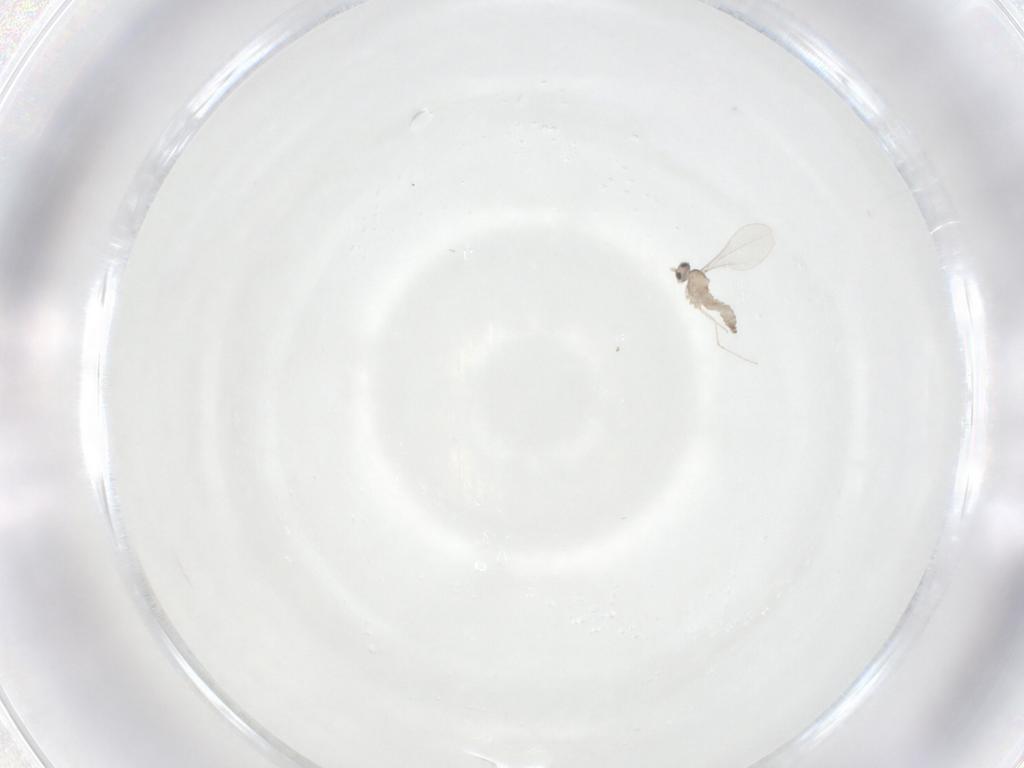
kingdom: Animalia
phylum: Arthropoda
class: Insecta
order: Diptera
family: Cecidomyiidae
